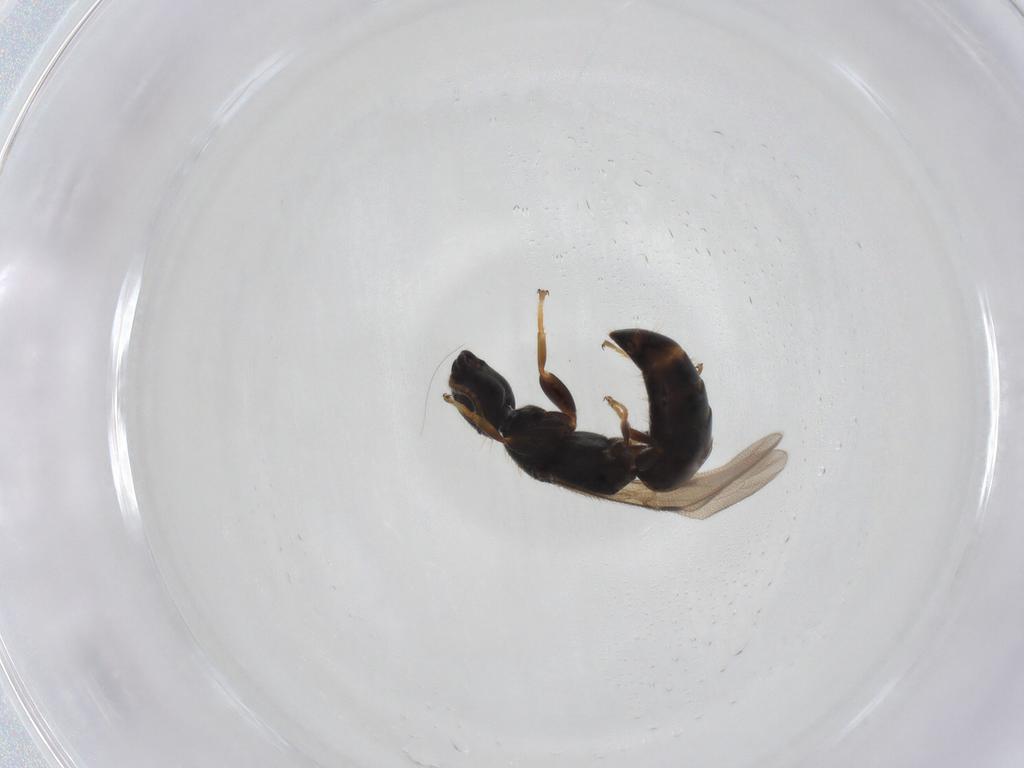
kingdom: Animalia
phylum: Arthropoda
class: Insecta
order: Hymenoptera
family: Bethylidae
